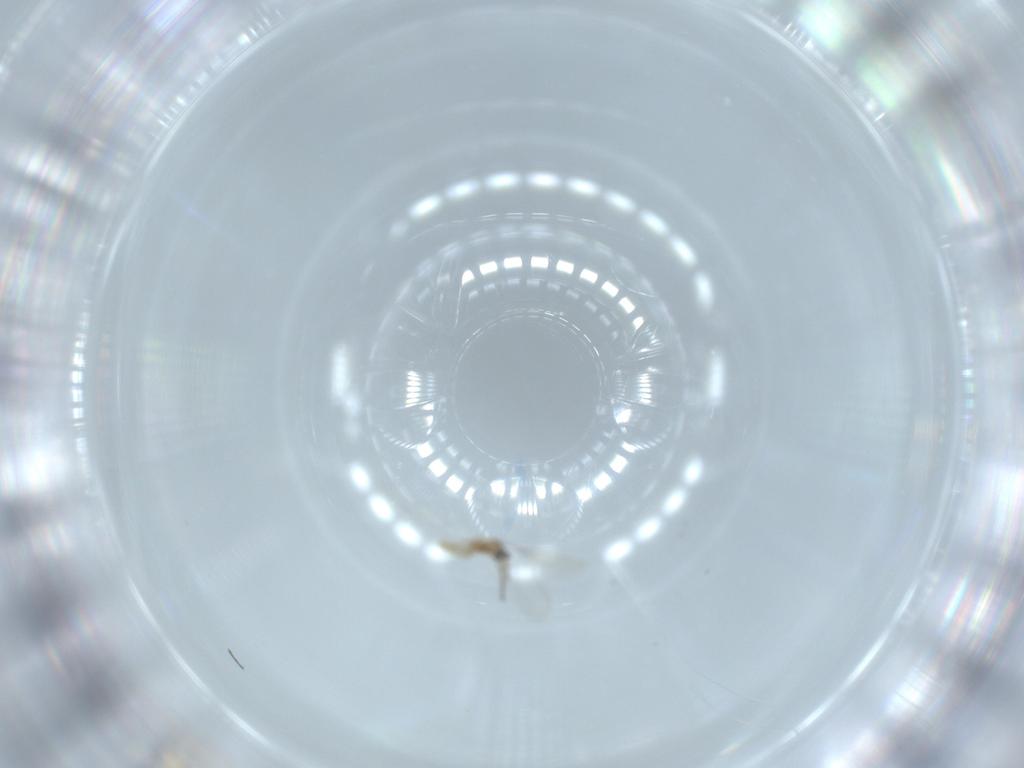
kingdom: Animalia
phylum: Arthropoda
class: Insecta
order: Diptera
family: Cecidomyiidae
